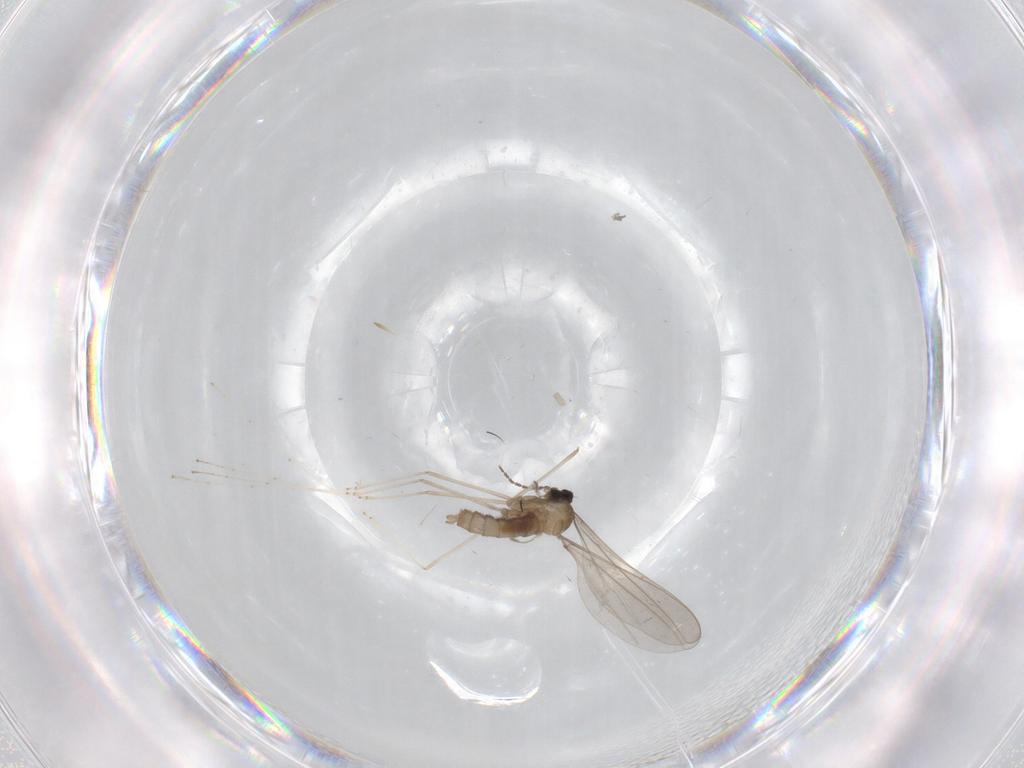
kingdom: Animalia
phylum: Arthropoda
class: Insecta
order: Diptera
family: Cecidomyiidae
